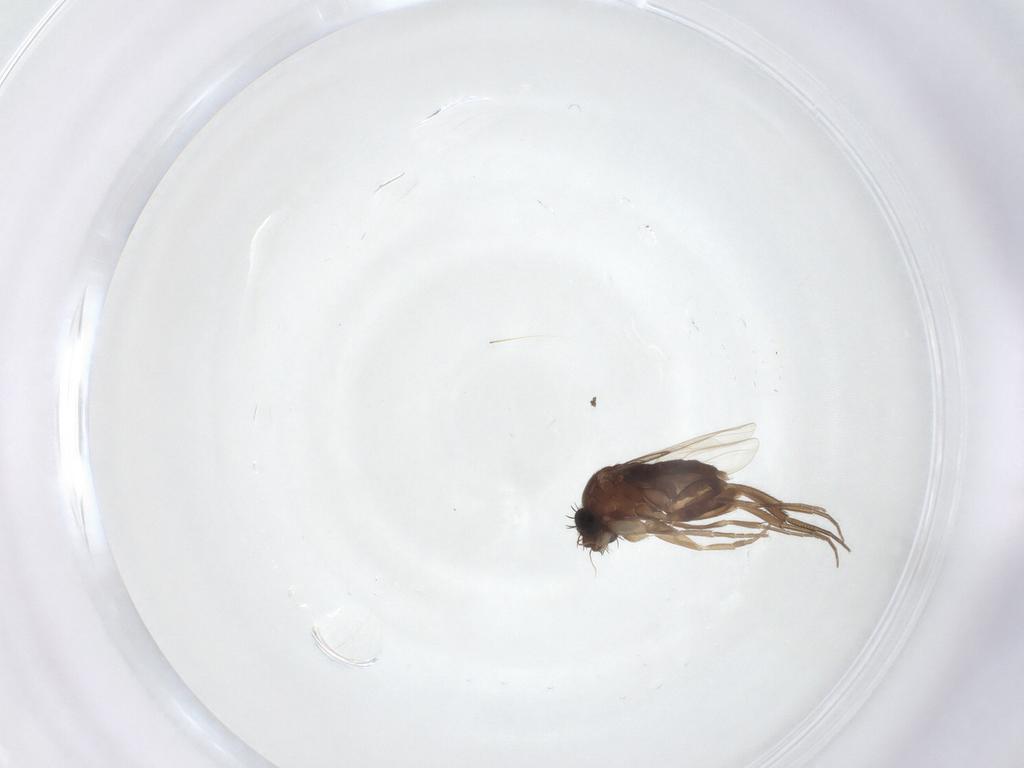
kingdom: Animalia
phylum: Arthropoda
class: Insecta
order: Diptera
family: Phoridae
